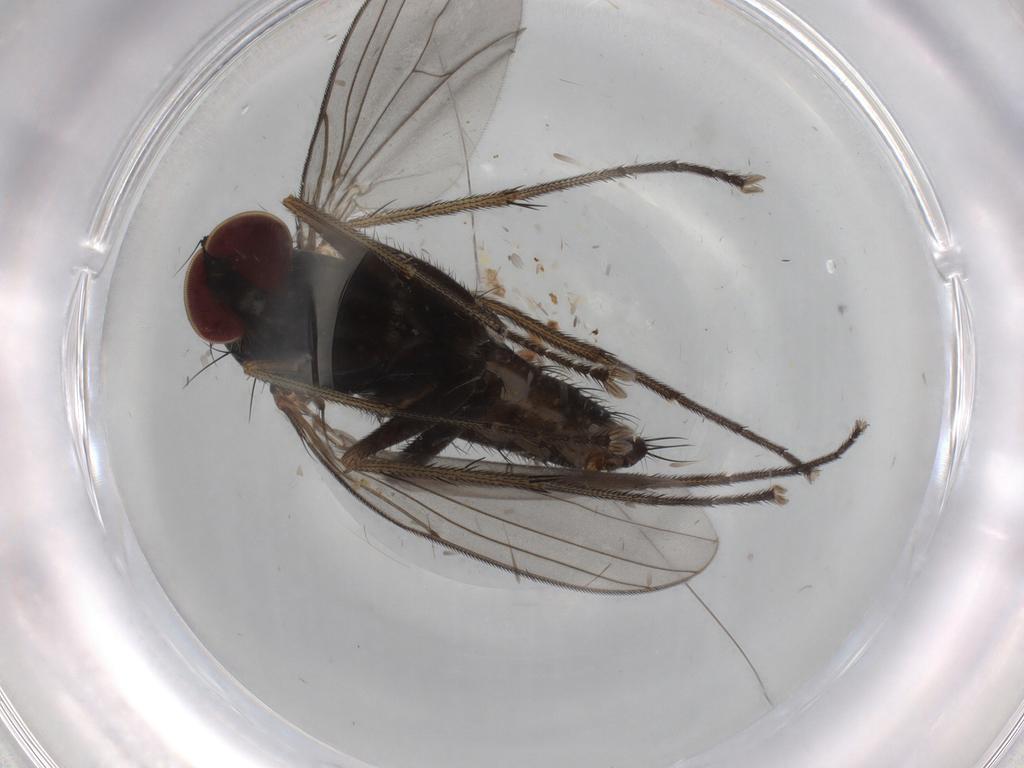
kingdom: Animalia
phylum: Arthropoda
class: Insecta
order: Diptera
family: Phoridae
